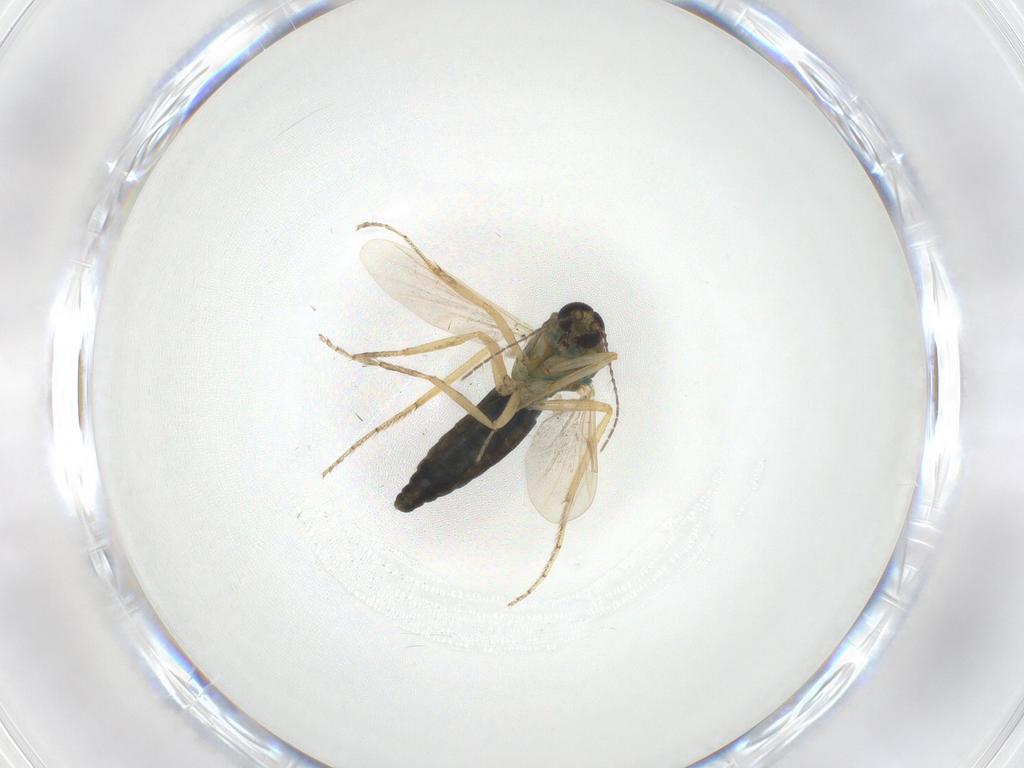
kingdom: Animalia
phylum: Arthropoda
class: Insecta
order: Diptera
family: Ceratopogonidae
